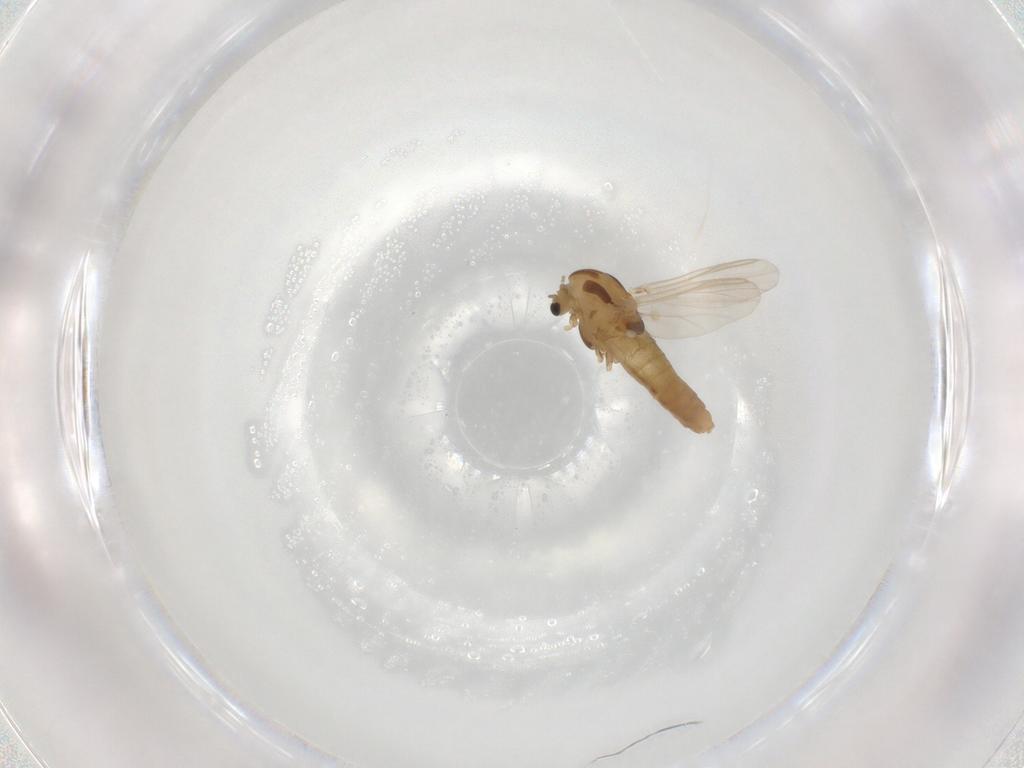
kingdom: Animalia
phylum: Arthropoda
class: Insecta
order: Diptera
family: Chironomidae
